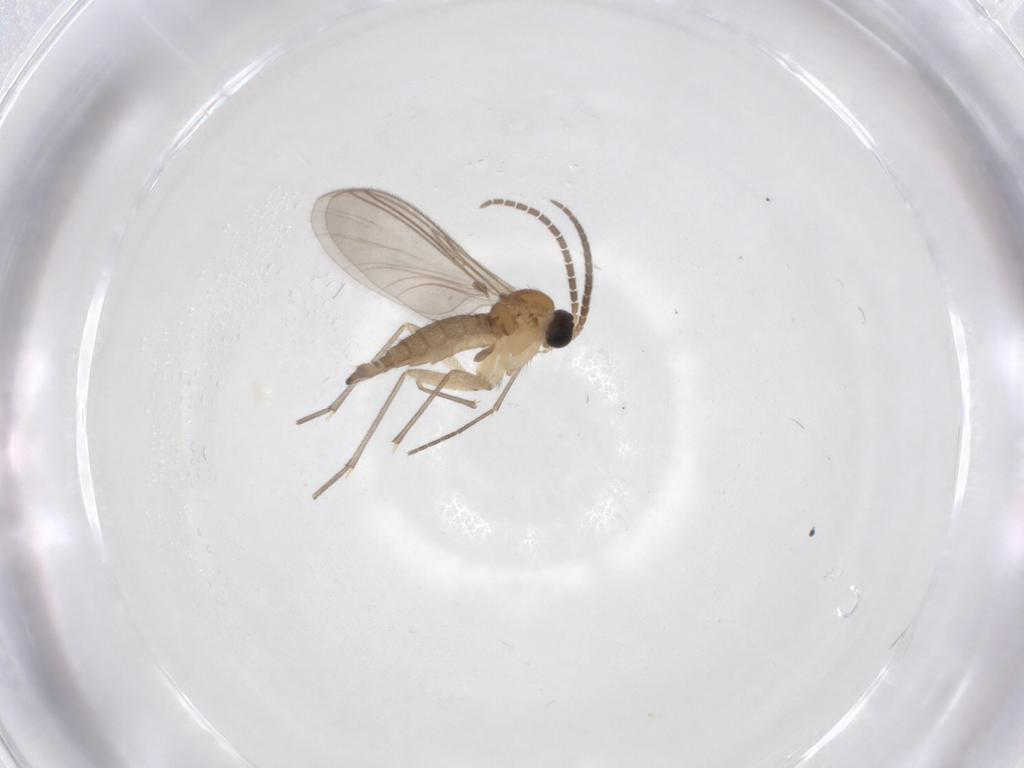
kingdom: Animalia
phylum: Arthropoda
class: Insecta
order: Diptera
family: Sciaridae
